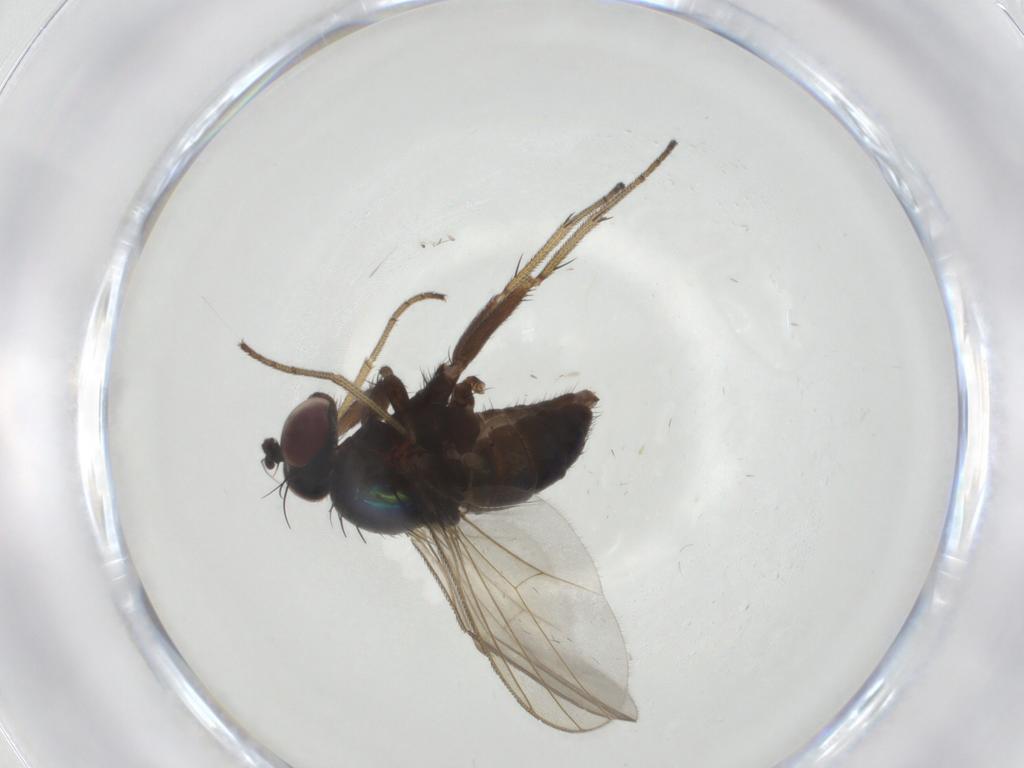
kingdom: Animalia
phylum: Arthropoda
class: Insecta
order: Diptera
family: Dolichopodidae
